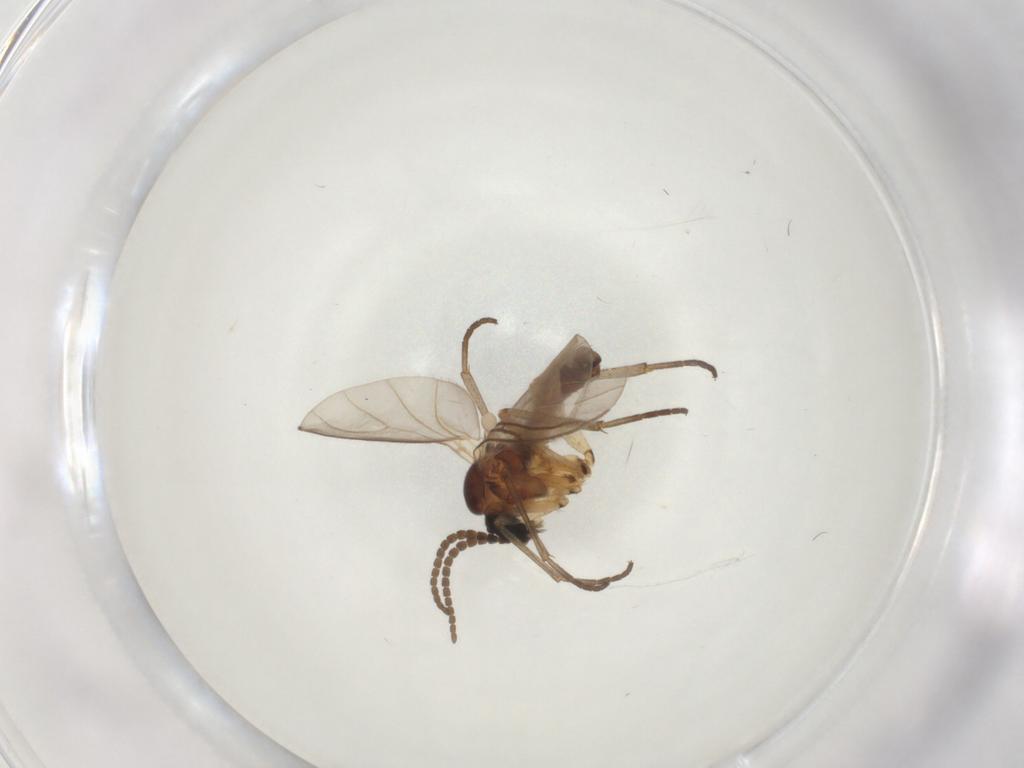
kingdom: Animalia
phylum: Arthropoda
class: Insecta
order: Diptera
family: Chloropidae
